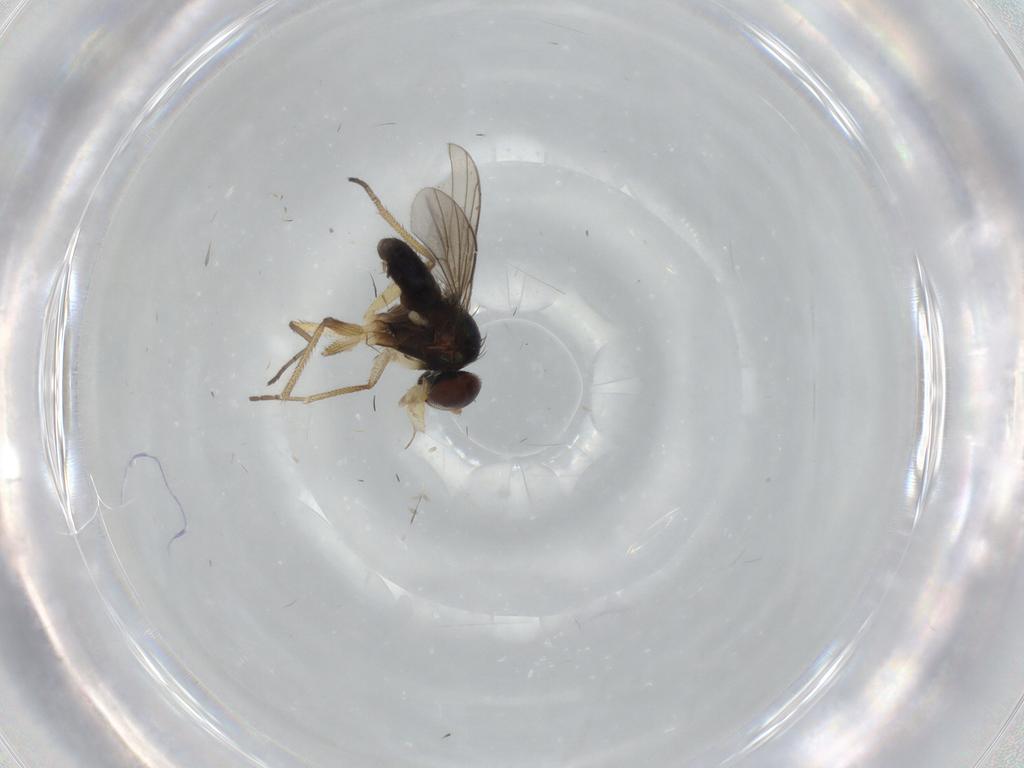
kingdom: Animalia
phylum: Arthropoda
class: Insecta
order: Diptera
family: Dolichopodidae
